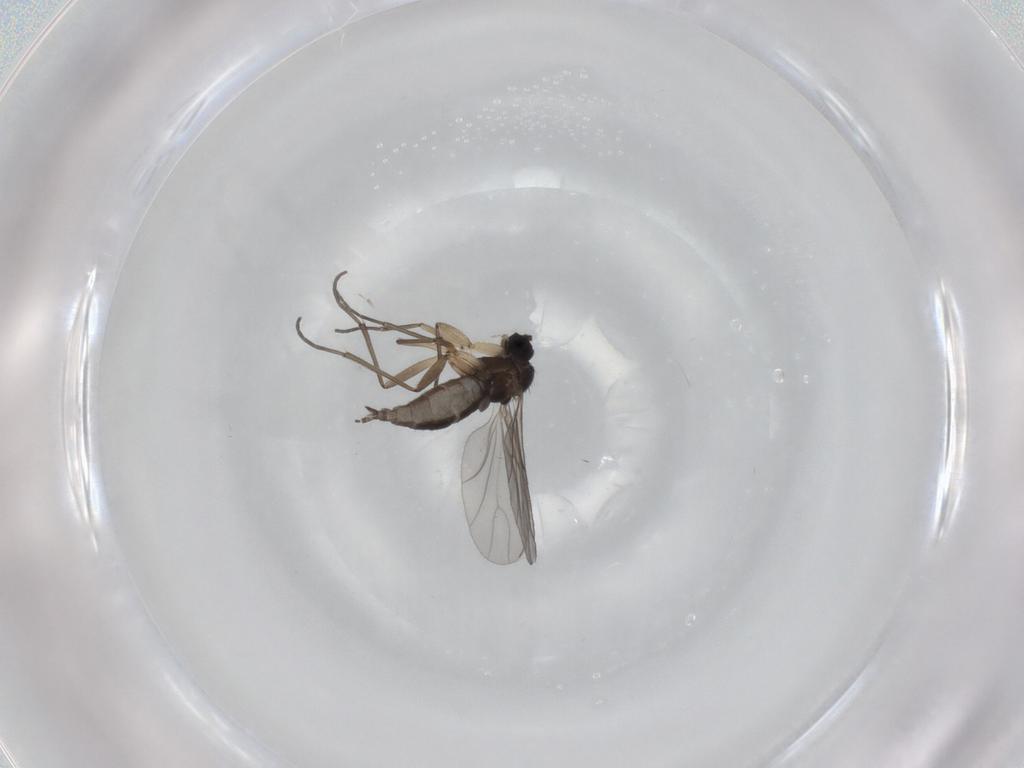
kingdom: Animalia
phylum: Arthropoda
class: Insecta
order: Diptera
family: Sciaridae
